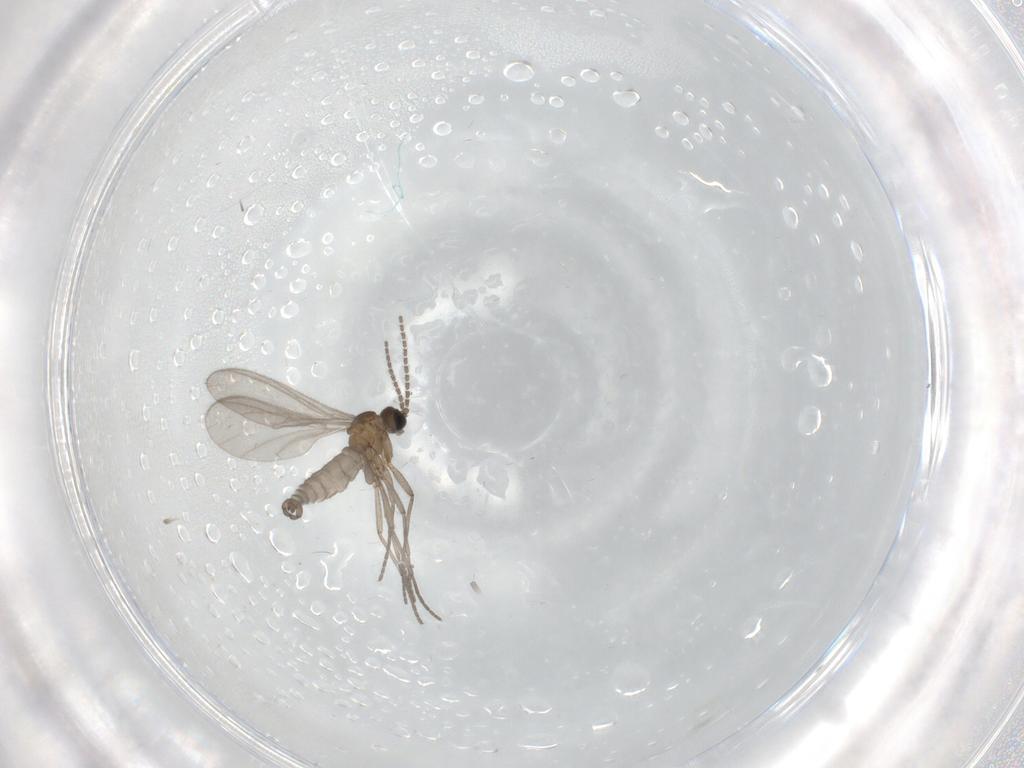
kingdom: Animalia
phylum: Arthropoda
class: Insecta
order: Diptera
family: Sciaridae
